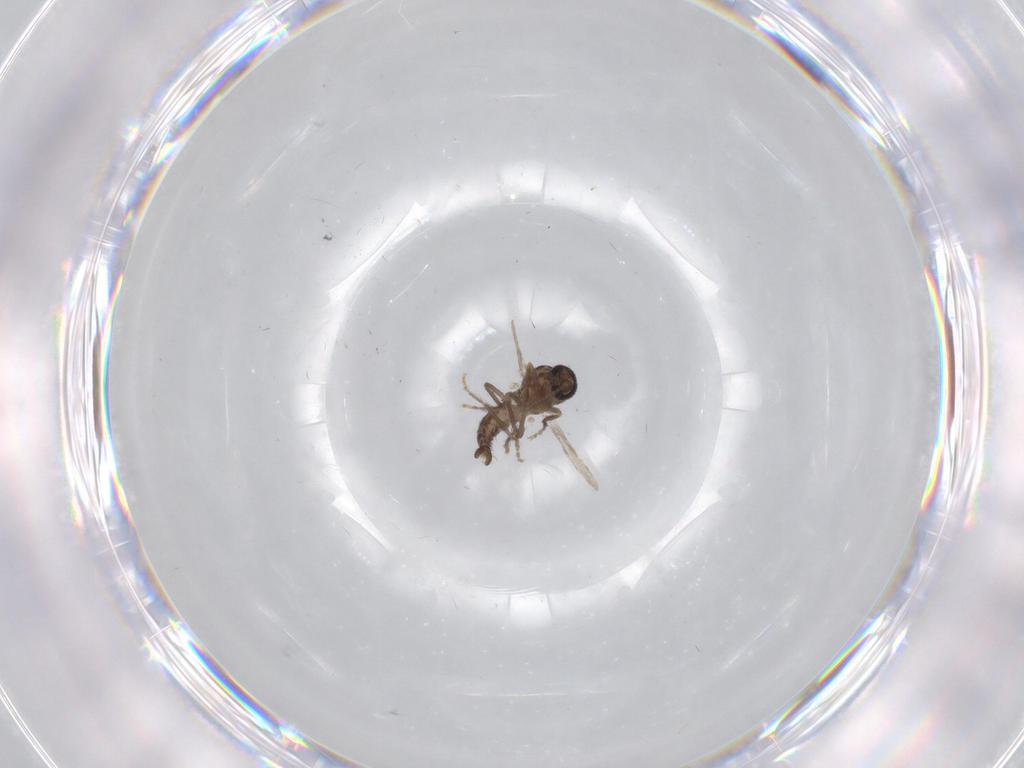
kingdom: Animalia
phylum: Arthropoda
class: Insecta
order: Diptera
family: Ceratopogonidae
